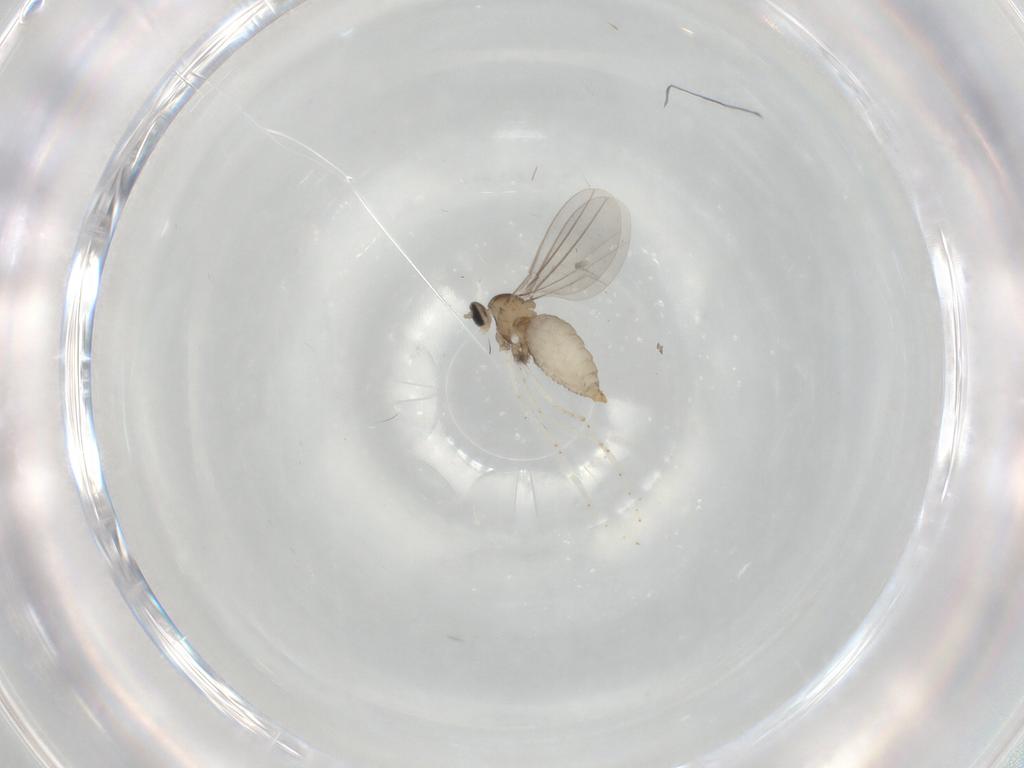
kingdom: Animalia
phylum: Arthropoda
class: Insecta
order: Diptera
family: Cecidomyiidae
